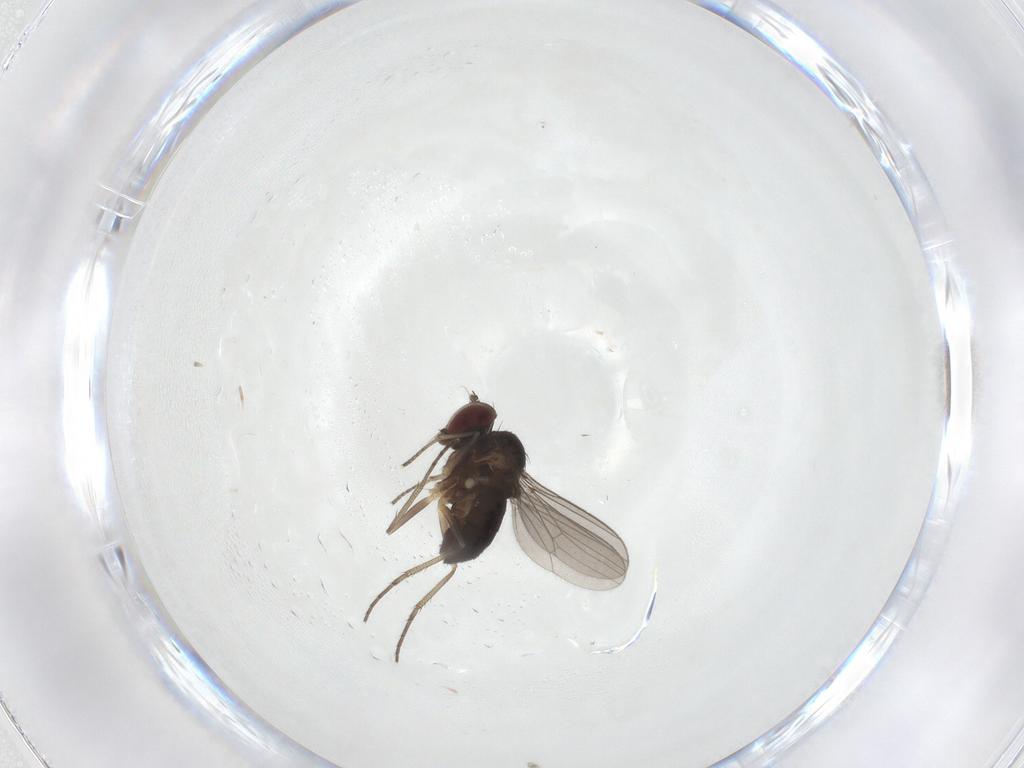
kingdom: Animalia
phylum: Arthropoda
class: Insecta
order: Diptera
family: Dolichopodidae
